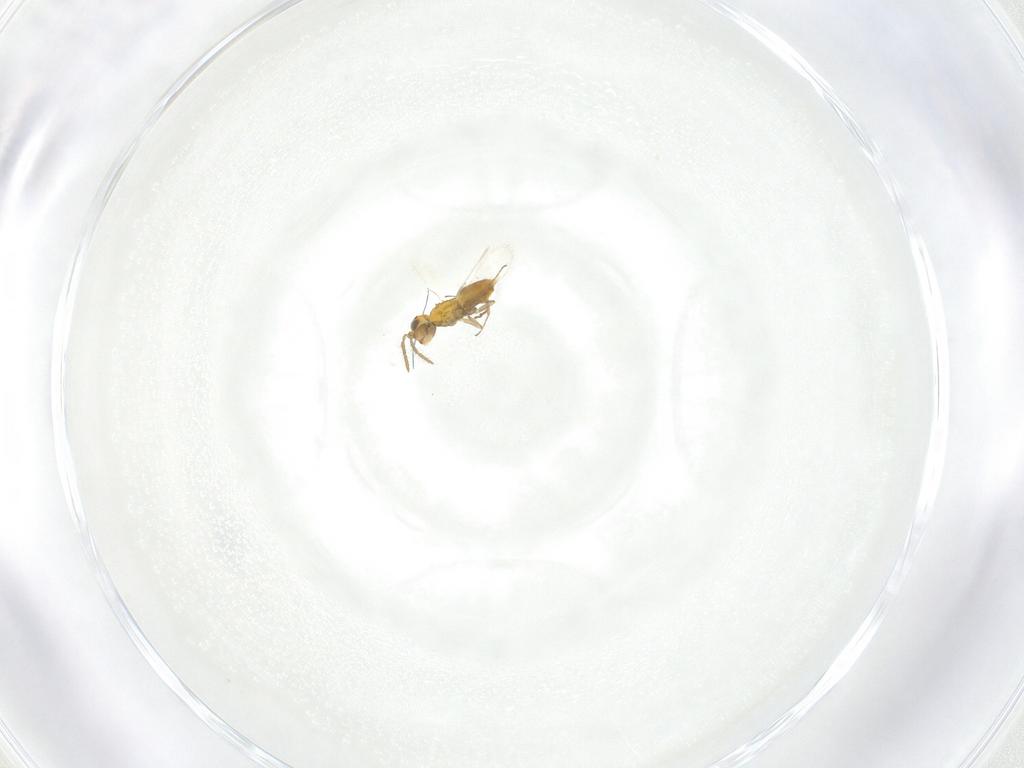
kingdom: Animalia
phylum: Arthropoda
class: Insecta
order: Hymenoptera
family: Aphelinidae
